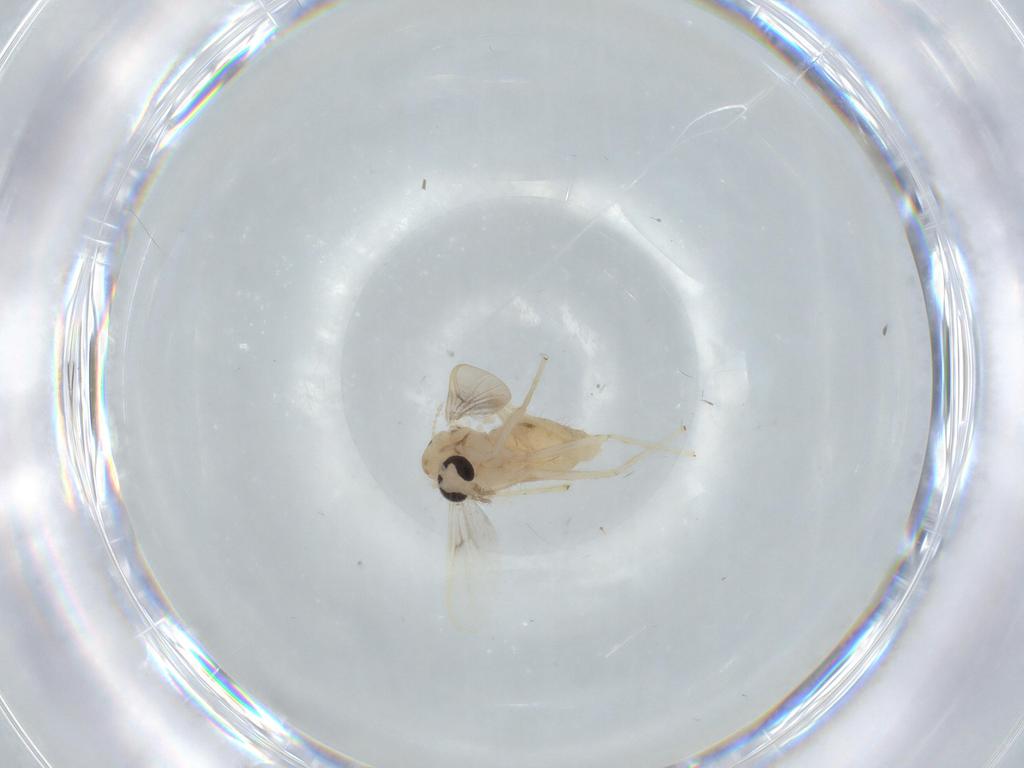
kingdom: Animalia
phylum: Arthropoda
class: Insecta
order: Diptera
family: Chironomidae
